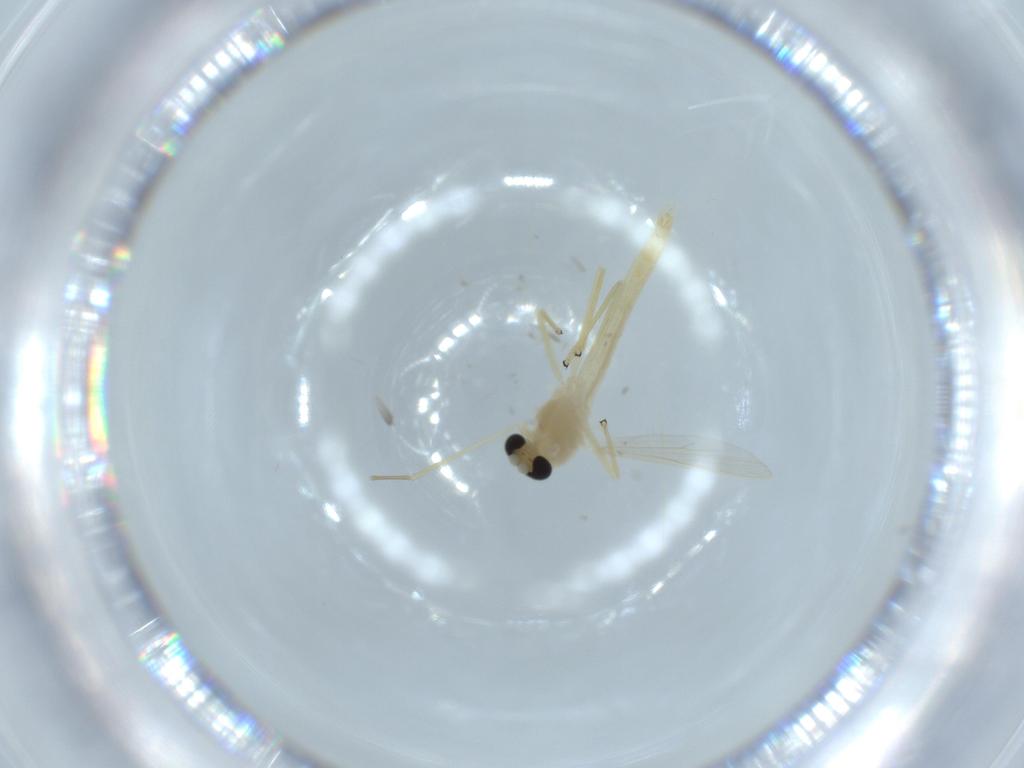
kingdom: Animalia
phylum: Arthropoda
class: Insecta
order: Diptera
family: Chironomidae
